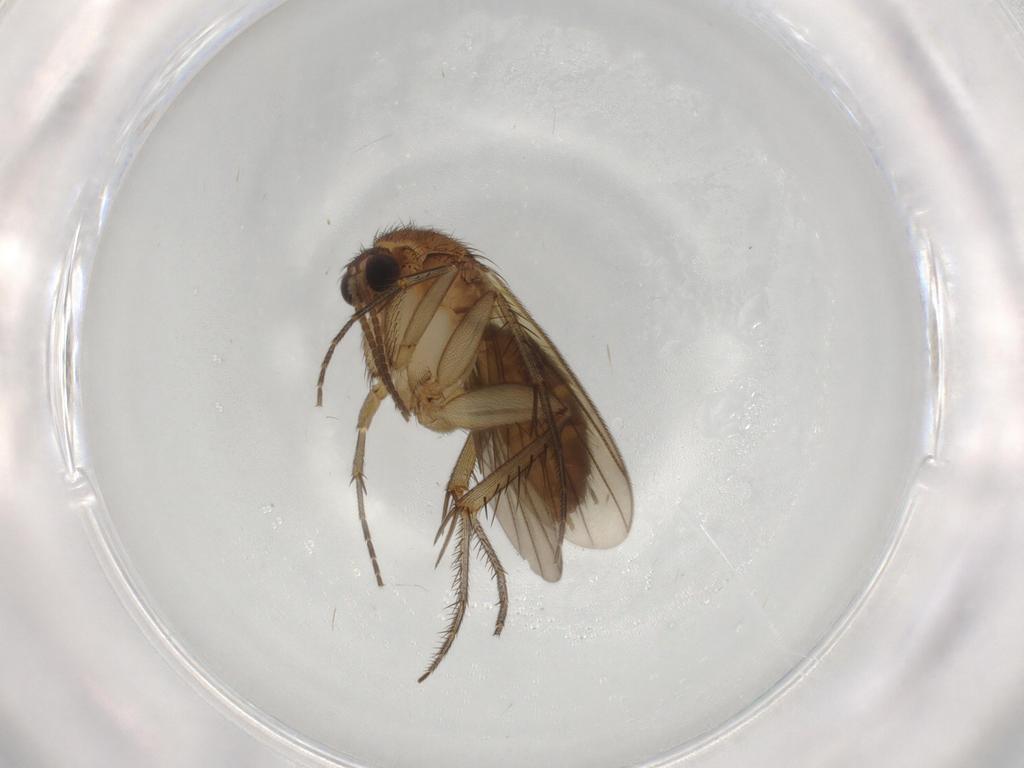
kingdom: Animalia
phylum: Arthropoda
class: Insecta
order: Diptera
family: Mycetophilidae
